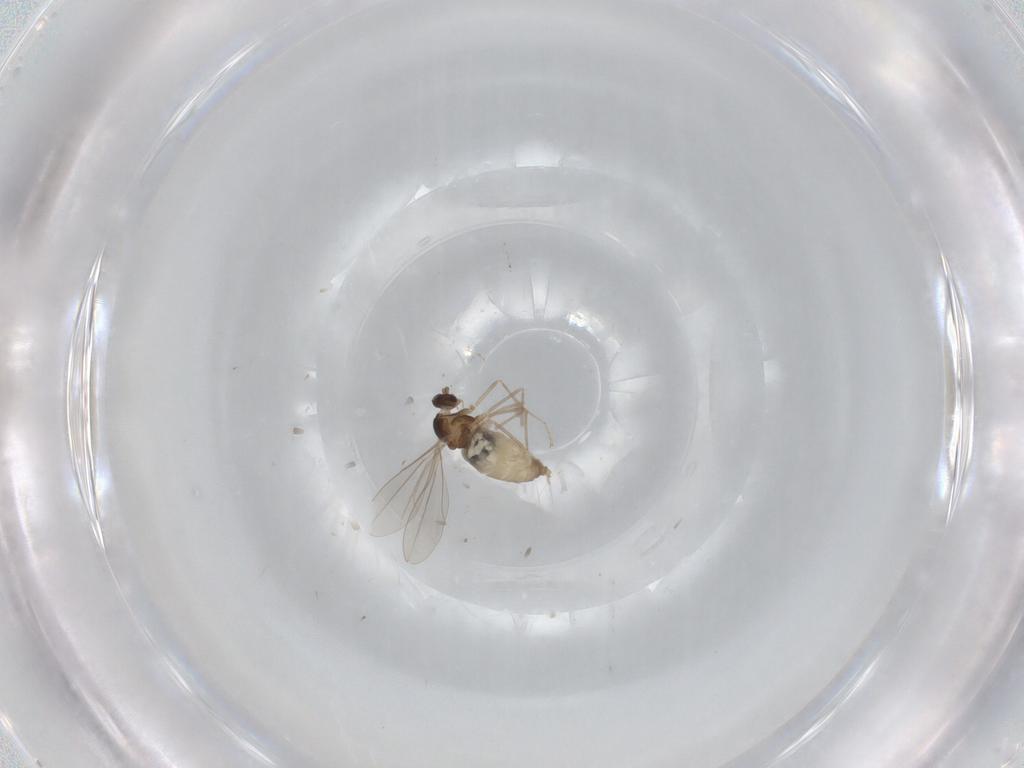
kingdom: Animalia
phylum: Arthropoda
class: Insecta
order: Diptera
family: Cecidomyiidae
